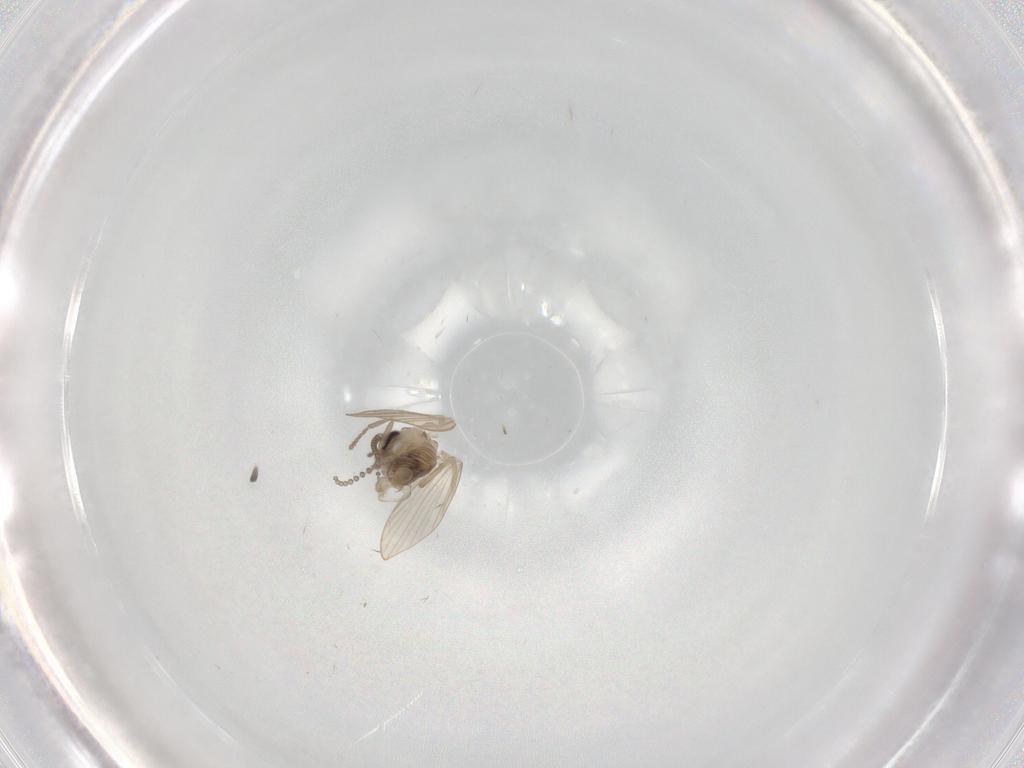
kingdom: Animalia
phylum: Arthropoda
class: Insecta
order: Diptera
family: Psychodidae
